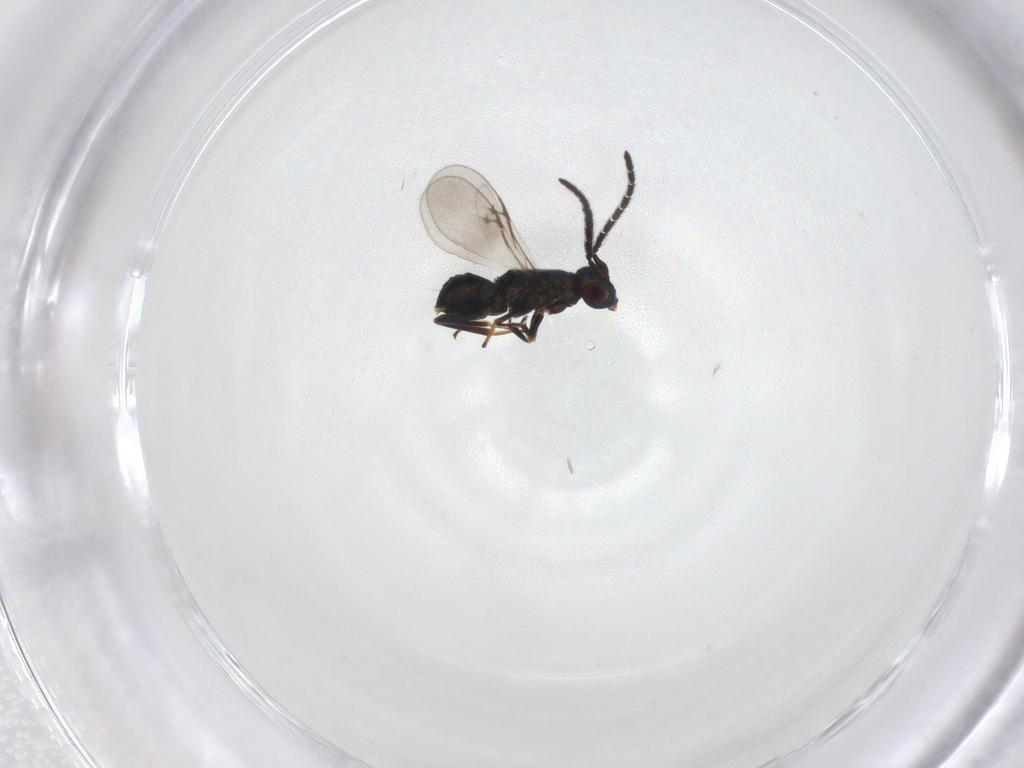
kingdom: Animalia
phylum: Arthropoda
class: Insecta
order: Hymenoptera
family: Encyrtidae
